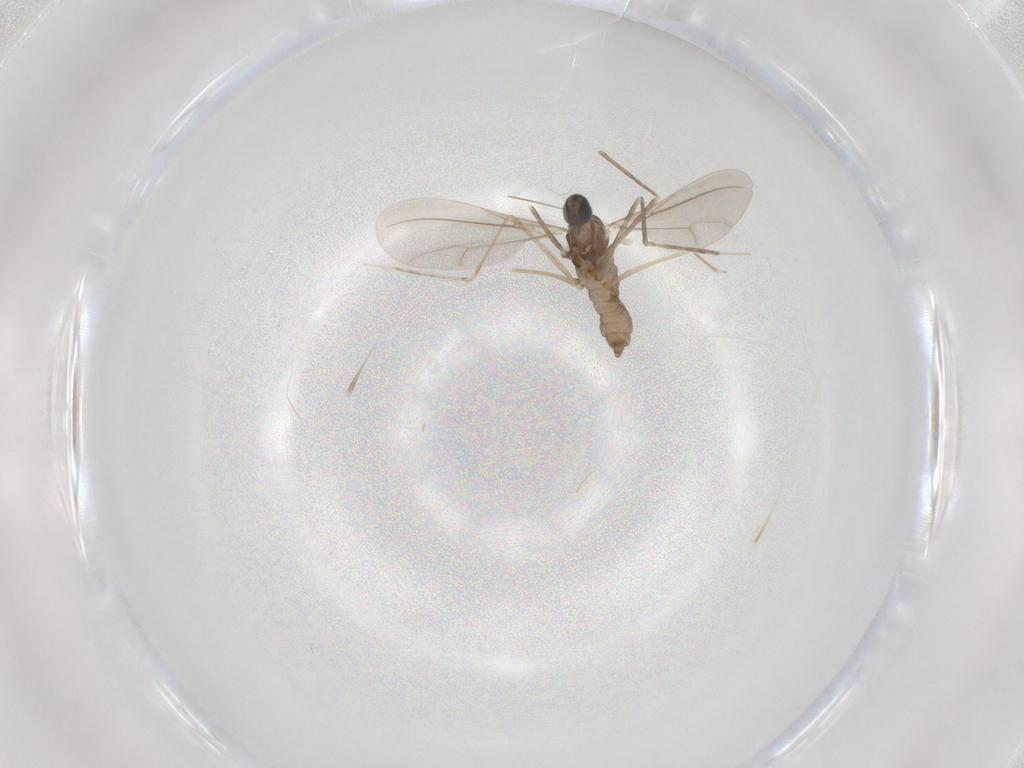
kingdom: Animalia
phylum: Arthropoda
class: Insecta
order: Diptera
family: Cecidomyiidae
